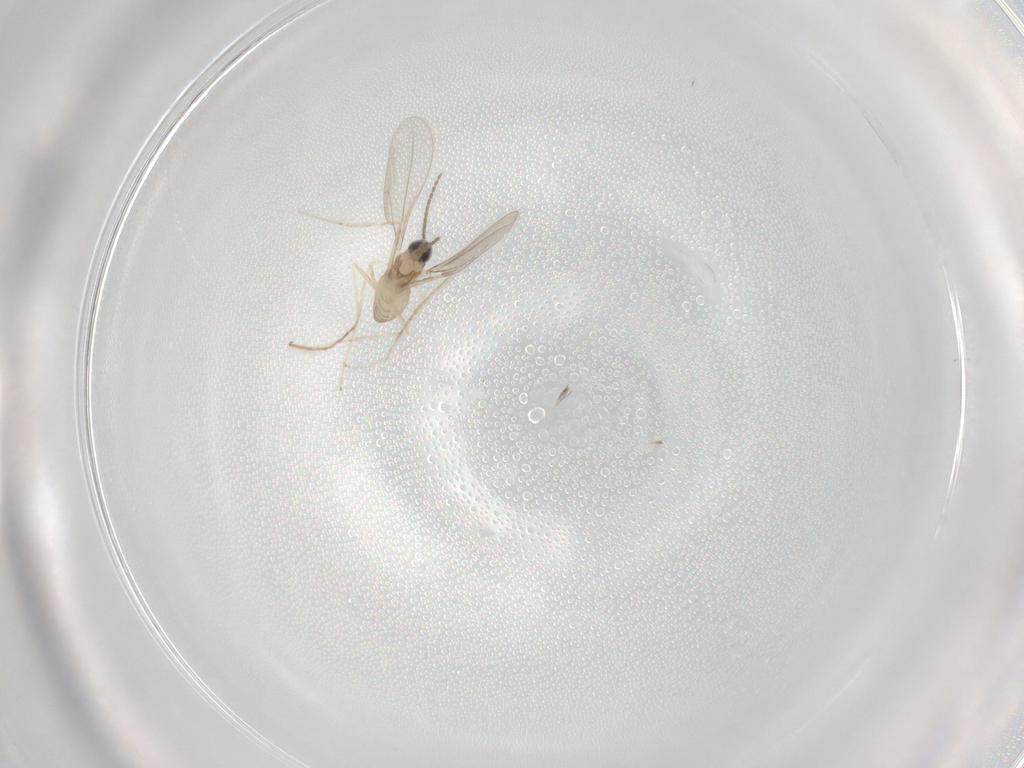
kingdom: Animalia
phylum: Arthropoda
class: Insecta
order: Diptera
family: Cecidomyiidae
